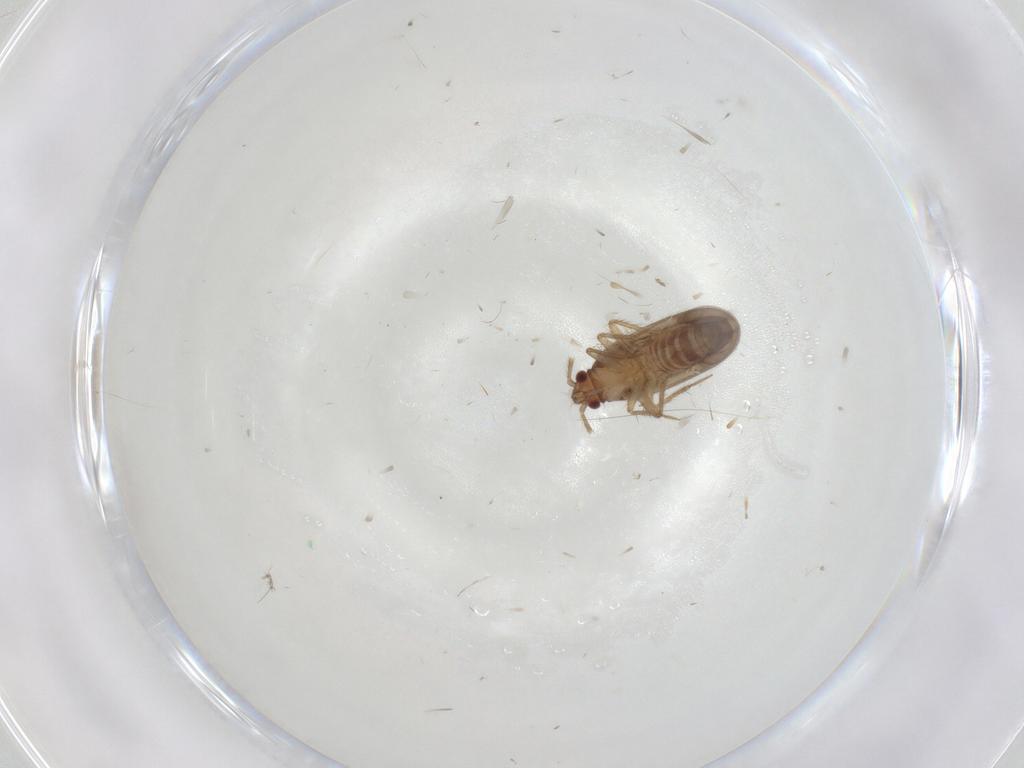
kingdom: Animalia
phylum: Arthropoda
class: Insecta
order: Hemiptera
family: Ceratocombidae
